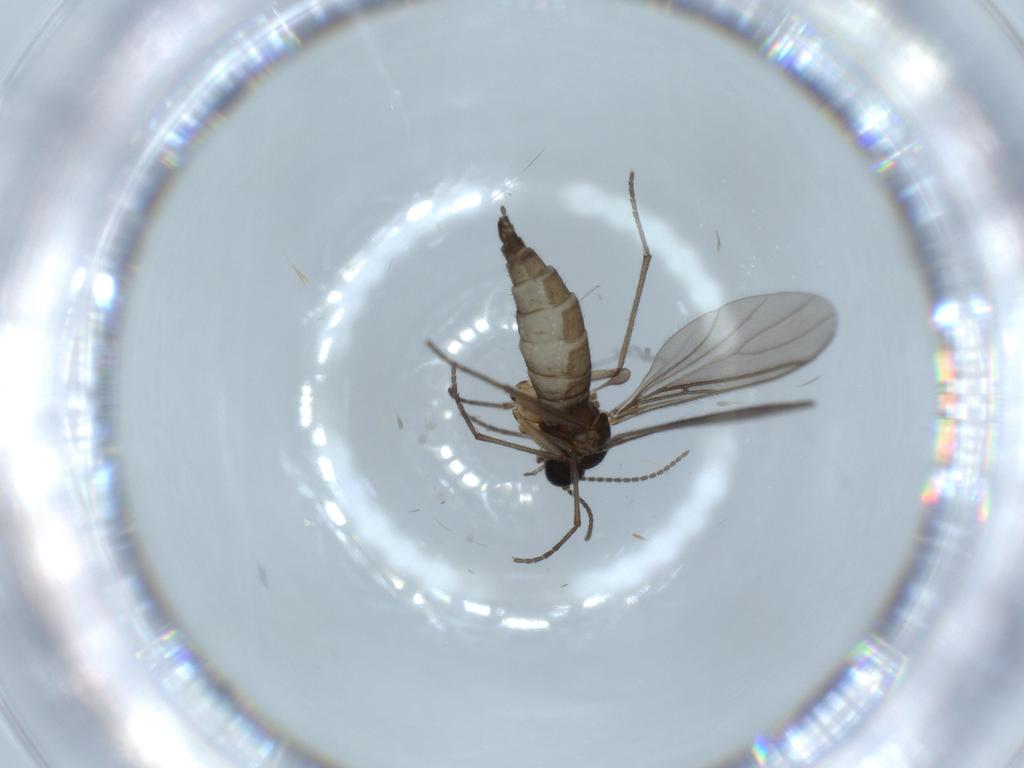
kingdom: Animalia
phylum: Arthropoda
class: Insecta
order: Diptera
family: Sciaridae
